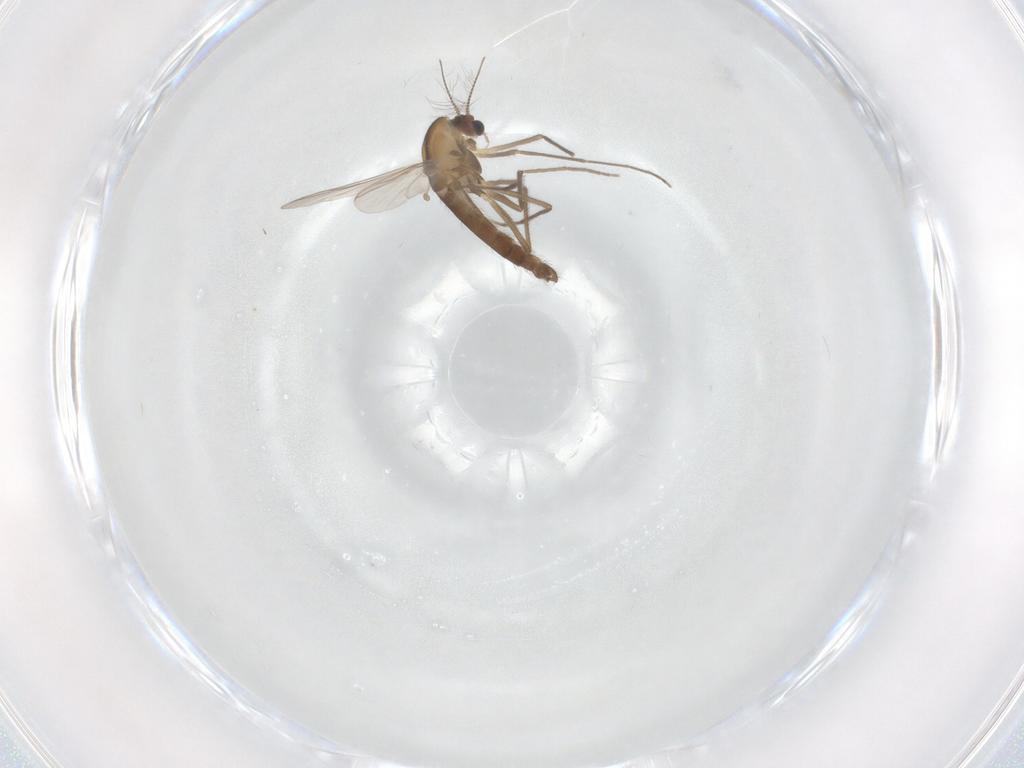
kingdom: Animalia
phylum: Arthropoda
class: Insecta
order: Diptera
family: Chironomidae
